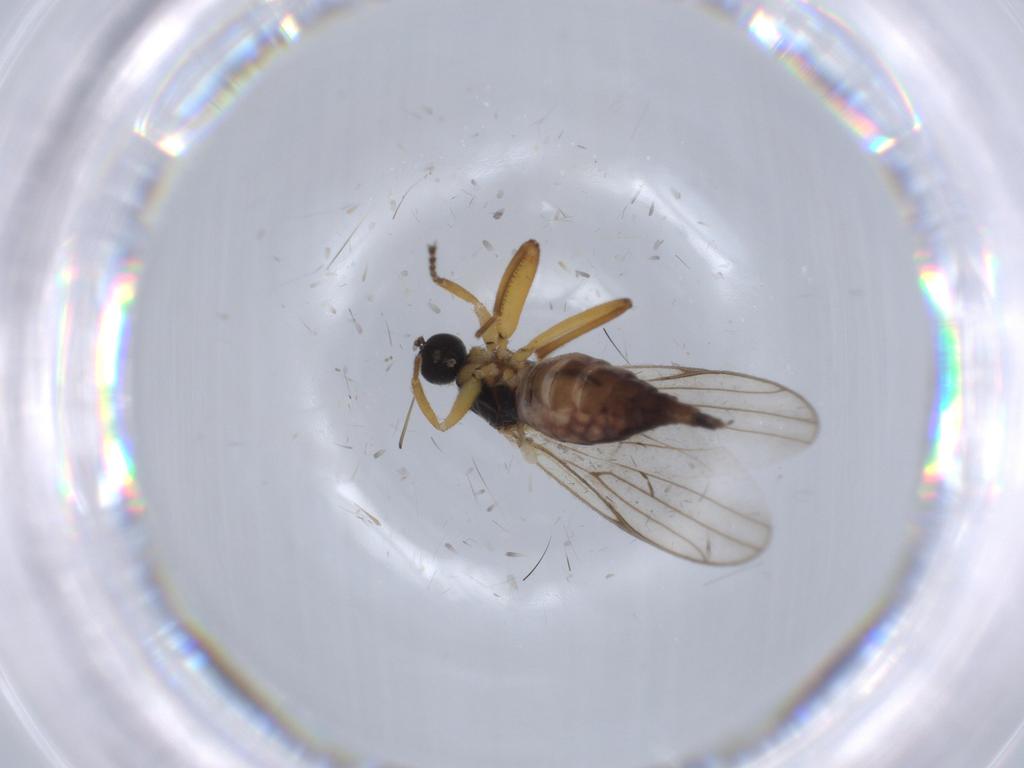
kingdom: Animalia
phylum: Arthropoda
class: Insecta
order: Diptera
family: Hybotidae
